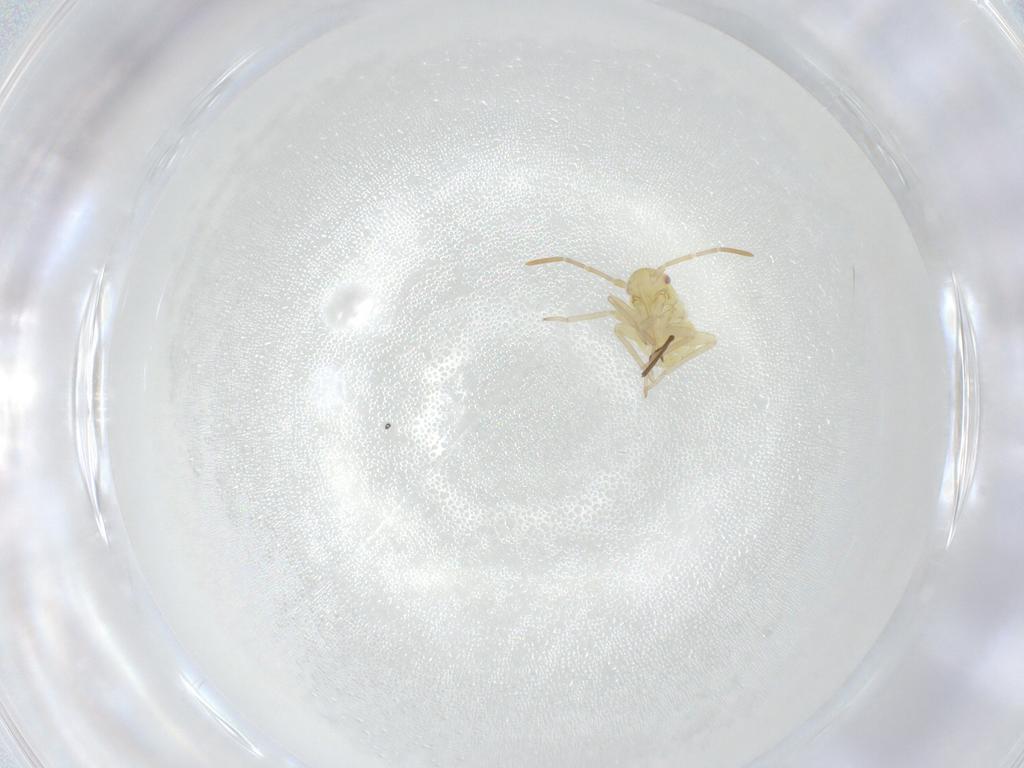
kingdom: Animalia
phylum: Arthropoda
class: Insecta
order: Hemiptera
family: Miridae
